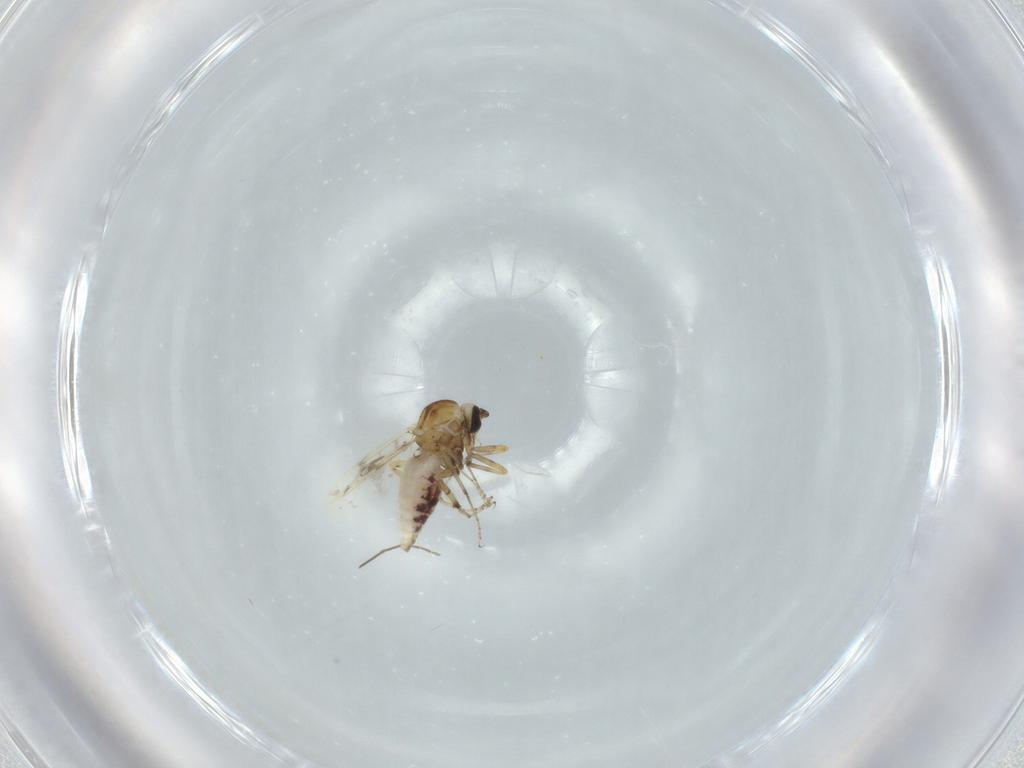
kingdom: Animalia
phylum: Arthropoda
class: Insecta
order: Diptera
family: Ceratopogonidae
